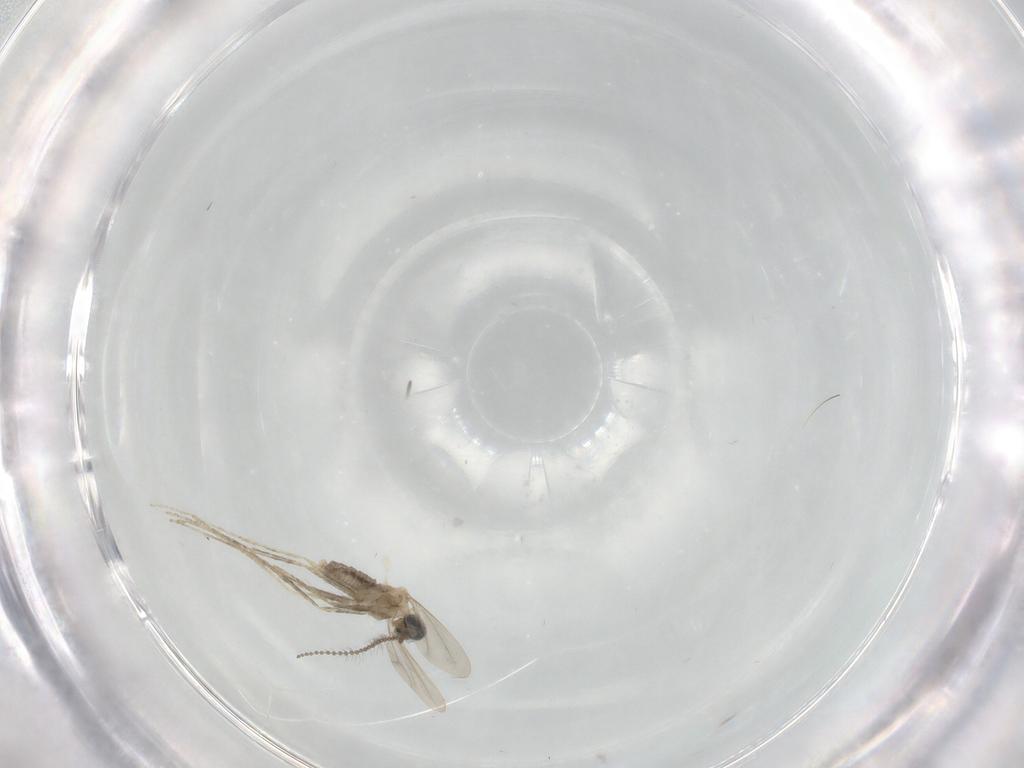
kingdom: Animalia
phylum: Arthropoda
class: Insecta
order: Diptera
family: Cecidomyiidae
